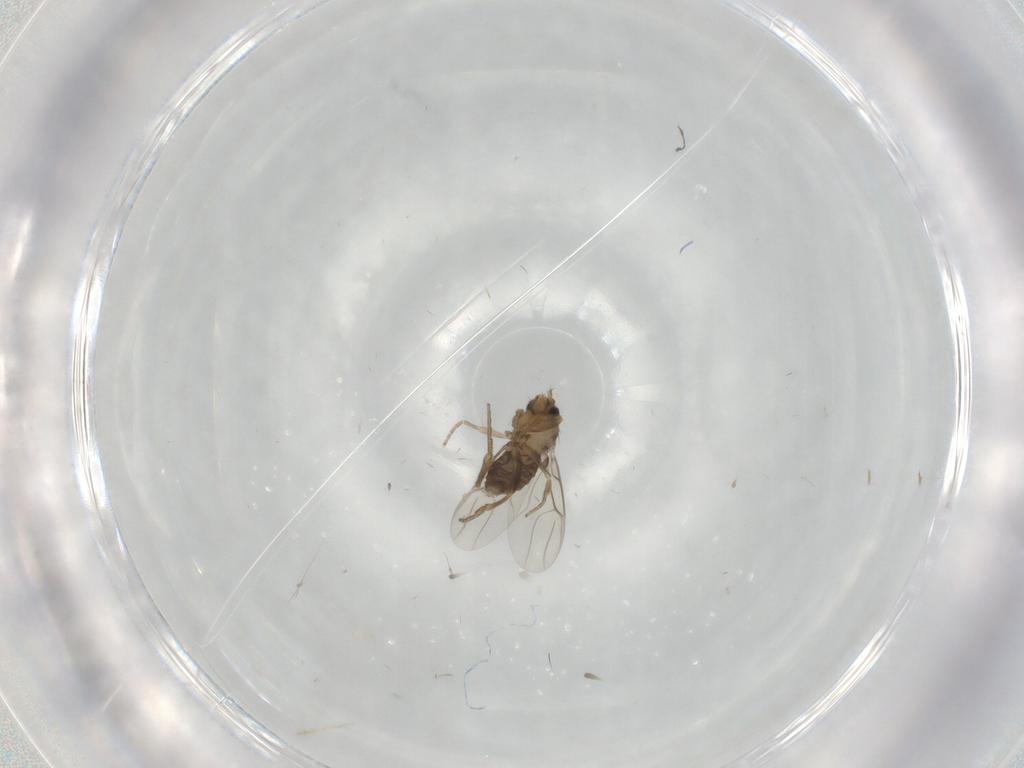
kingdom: Animalia
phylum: Arthropoda
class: Insecta
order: Diptera
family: Phoridae
